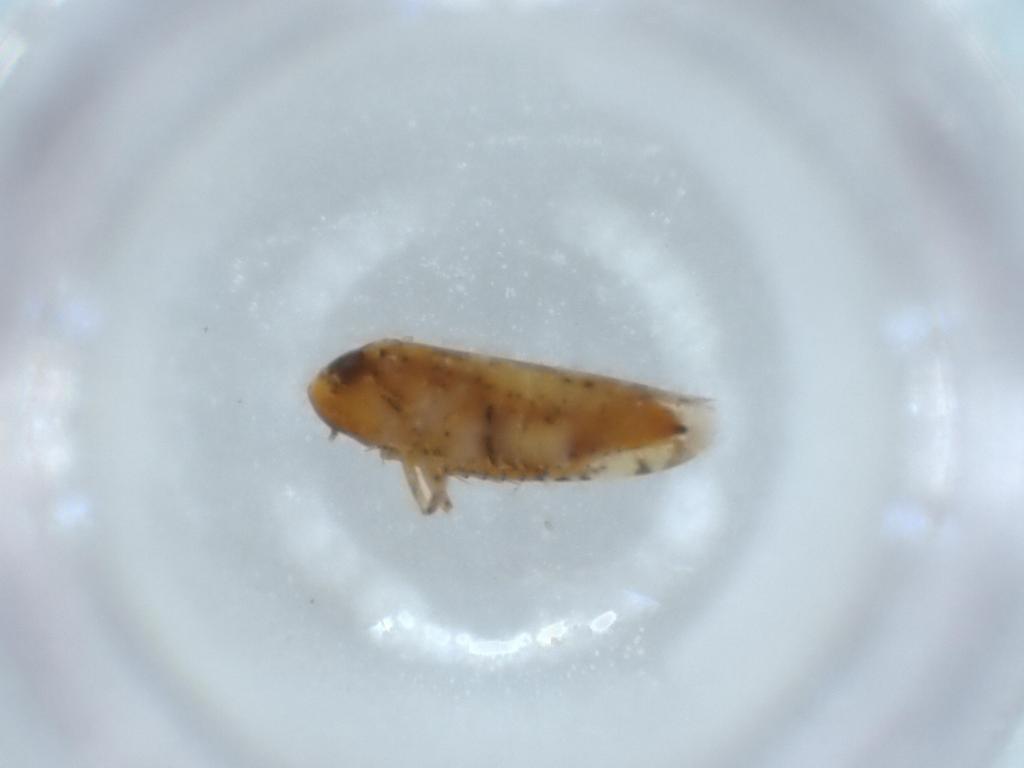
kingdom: Animalia
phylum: Arthropoda
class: Insecta
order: Hemiptera
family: Cicadellidae
